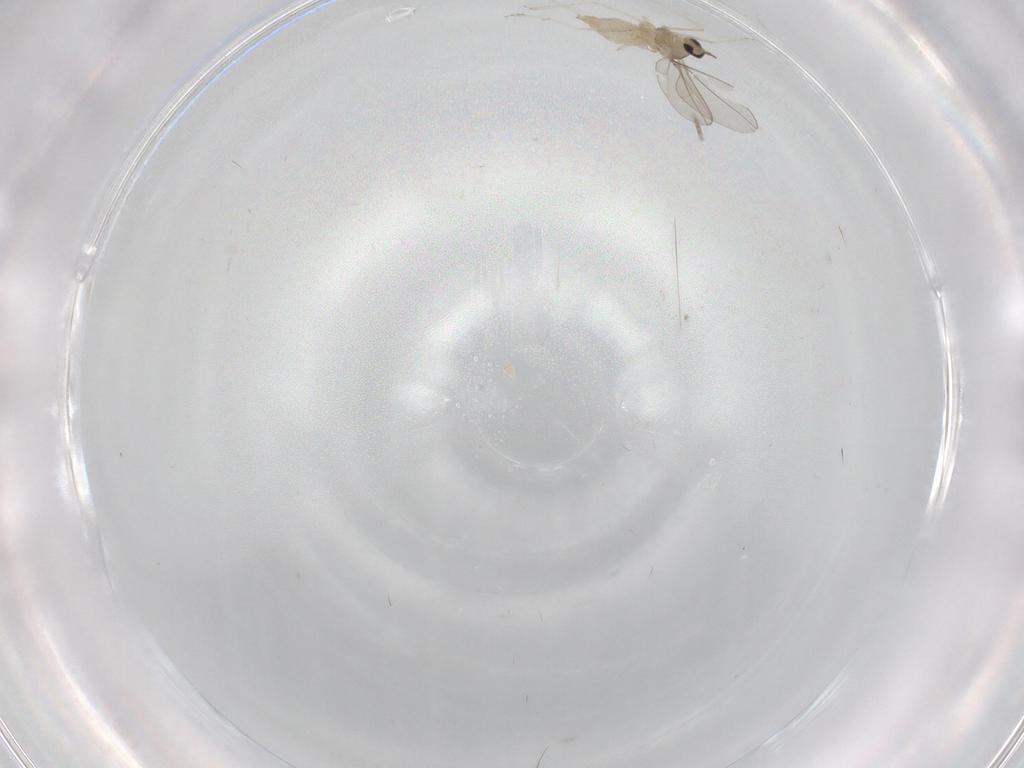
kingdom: Animalia
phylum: Arthropoda
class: Insecta
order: Diptera
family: Cecidomyiidae
